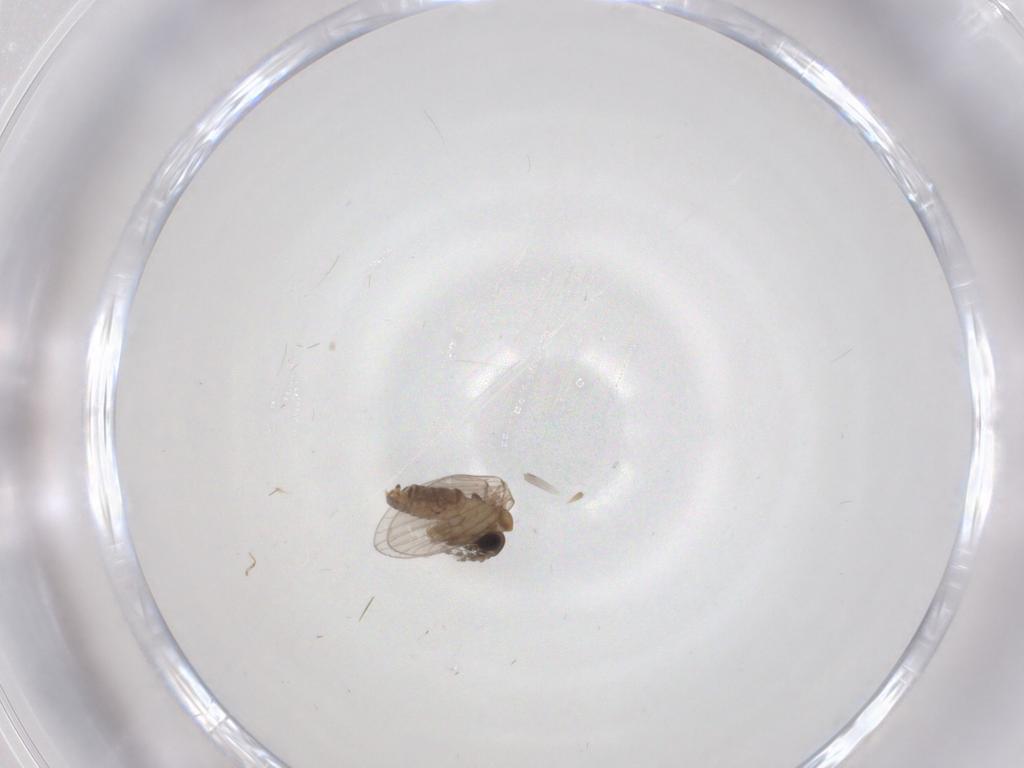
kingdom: Animalia
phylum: Arthropoda
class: Insecta
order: Diptera
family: Psychodidae
